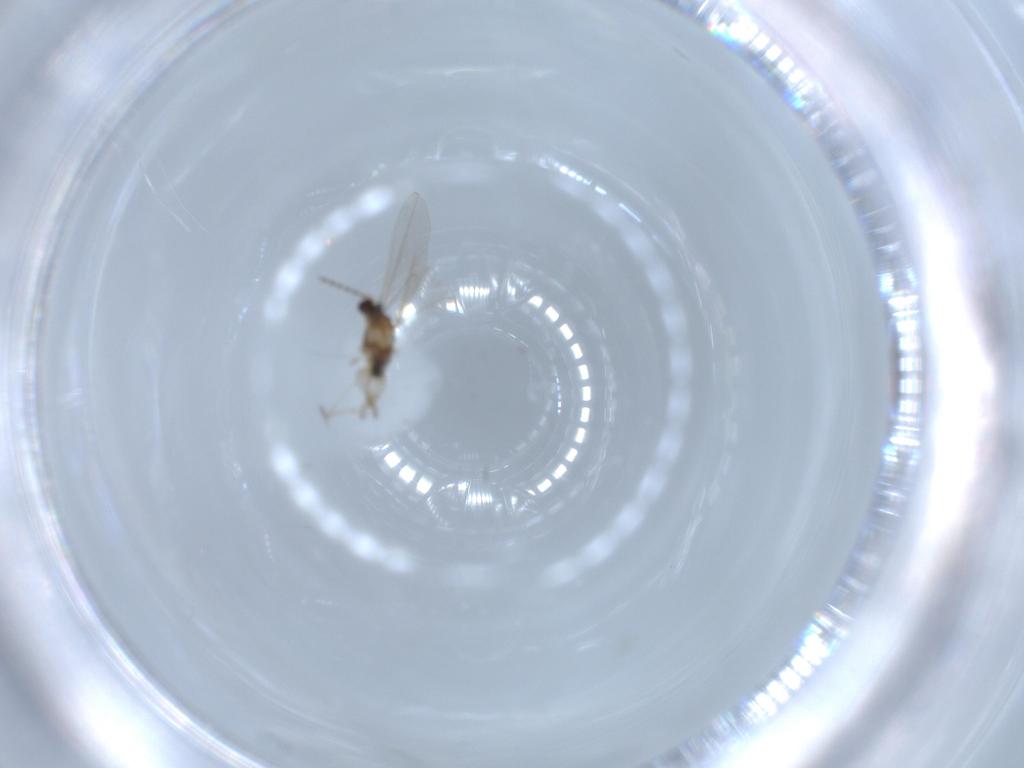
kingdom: Animalia
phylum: Arthropoda
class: Insecta
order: Diptera
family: Cecidomyiidae
